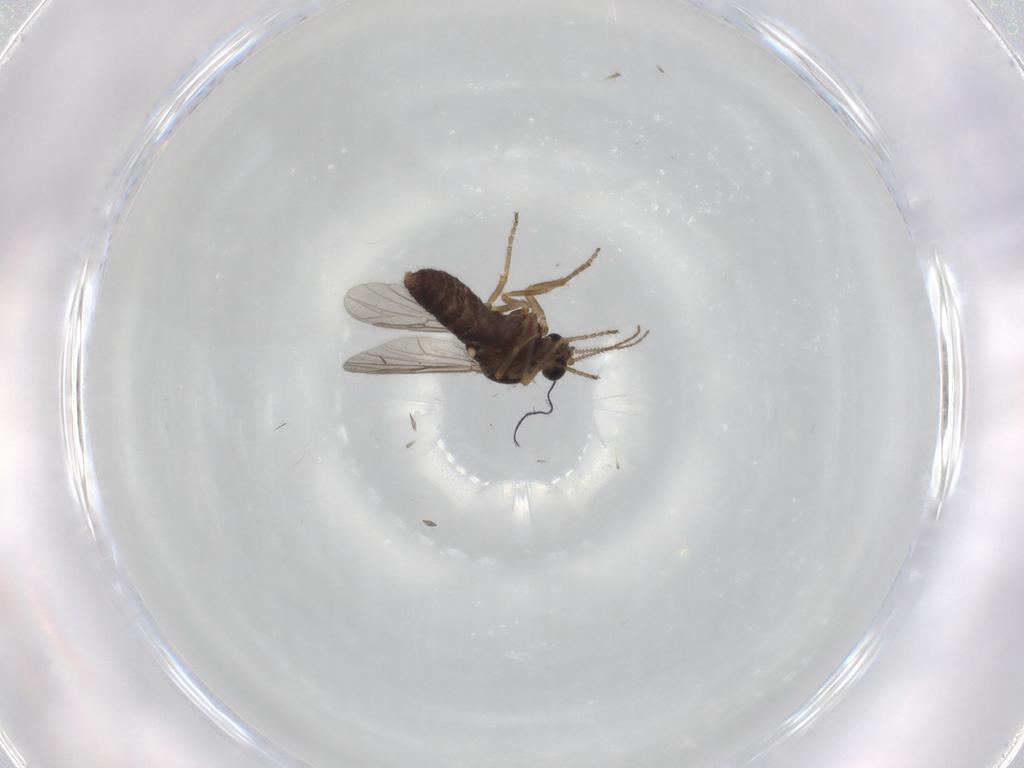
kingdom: Animalia
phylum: Arthropoda
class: Insecta
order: Diptera
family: Ceratopogonidae
